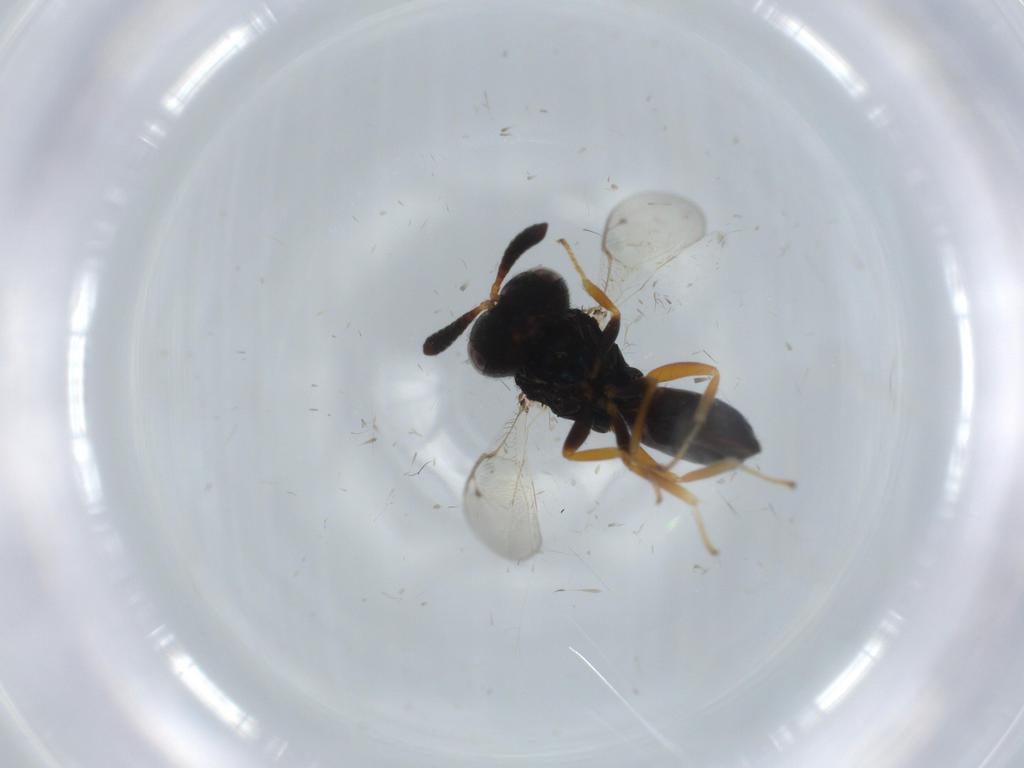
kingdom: Animalia
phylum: Arthropoda
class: Insecta
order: Hymenoptera
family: Agaonidae
